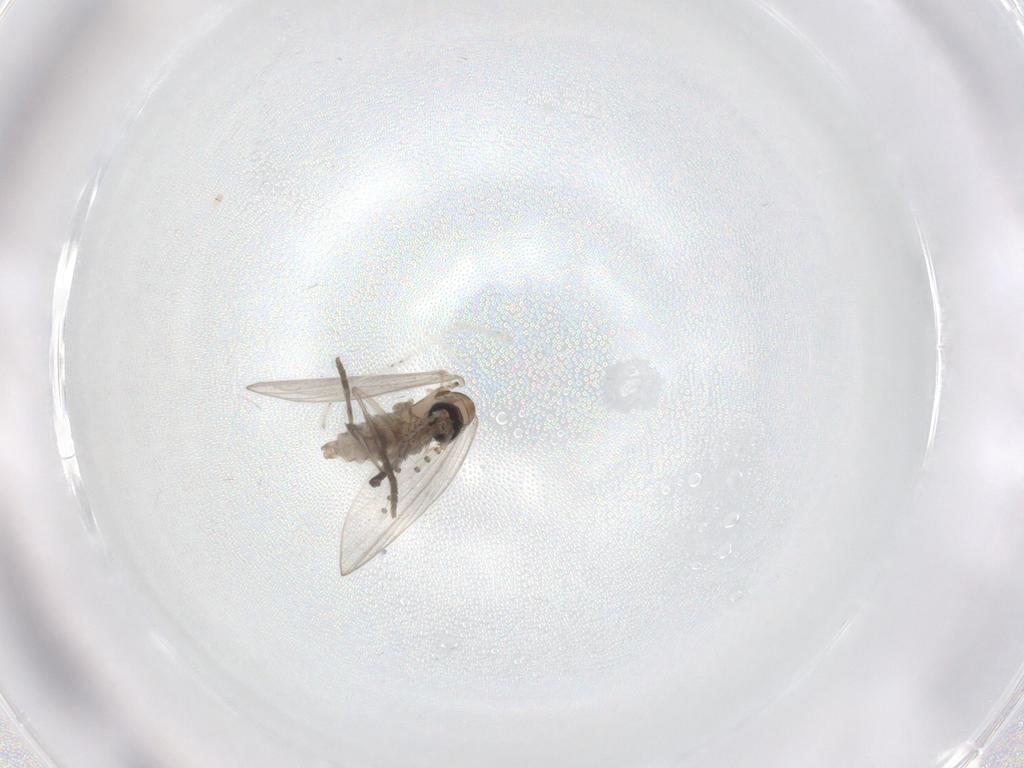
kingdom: Animalia
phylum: Arthropoda
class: Insecta
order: Diptera
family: Psychodidae
